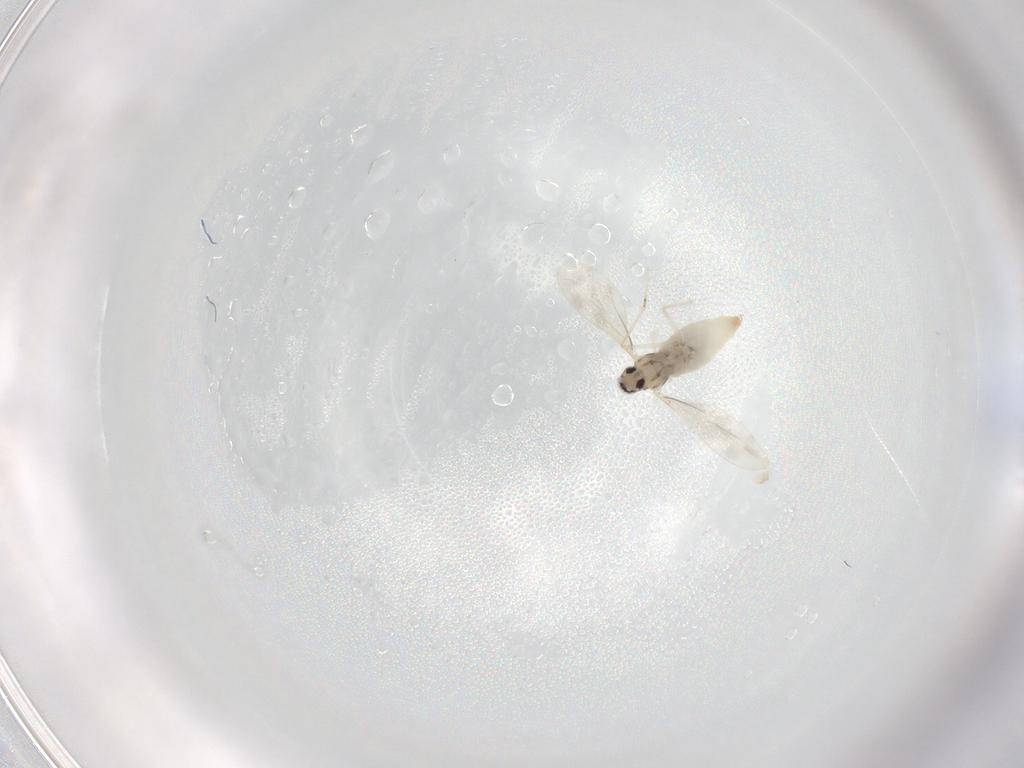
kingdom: Animalia
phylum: Arthropoda
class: Insecta
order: Diptera
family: Cecidomyiidae
